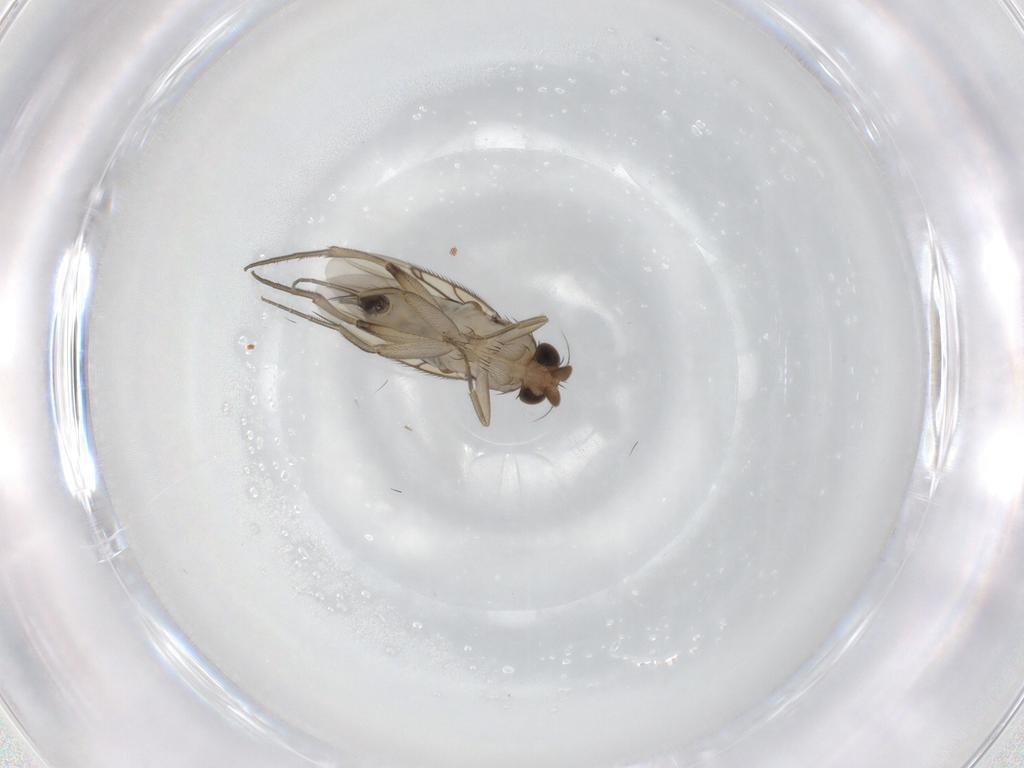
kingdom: Animalia
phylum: Arthropoda
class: Insecta
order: Diptera
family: Phoridae
